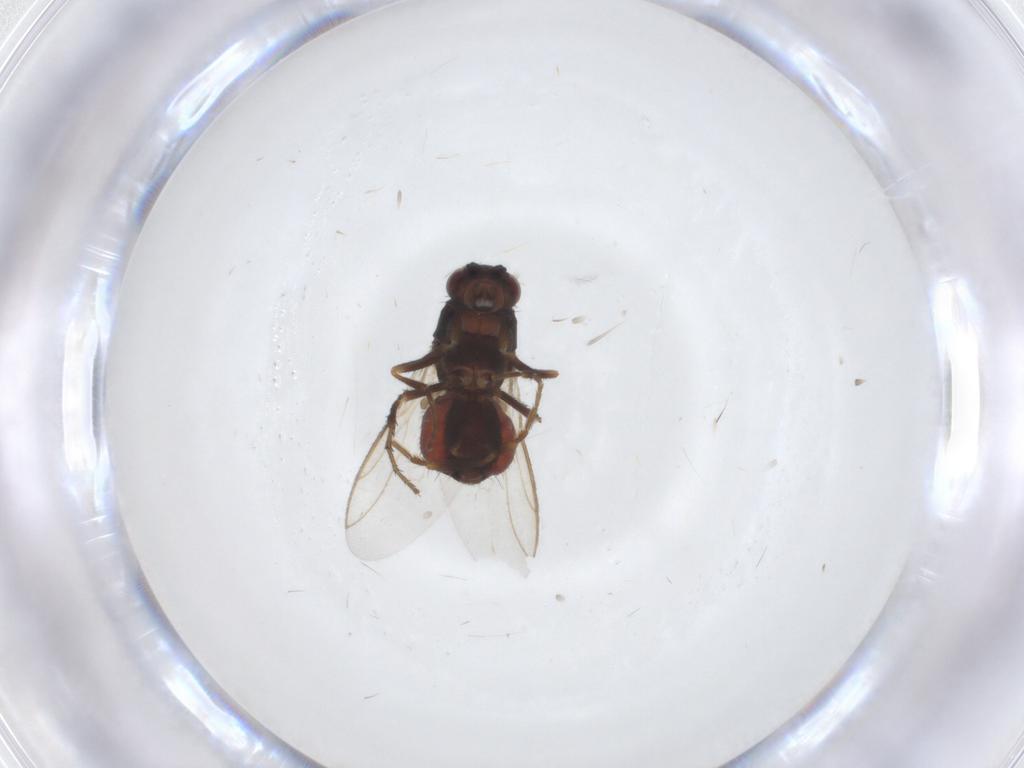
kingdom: Animalia
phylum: Arthropoda
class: Insecta
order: Diptera
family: Sphaeroceridae
